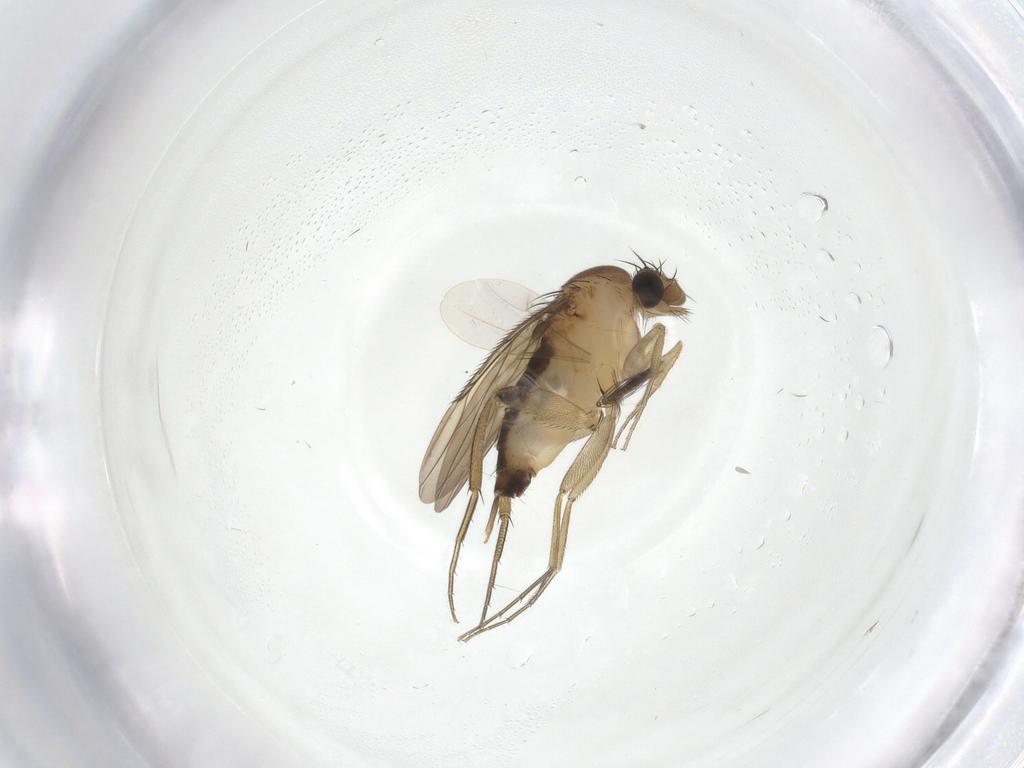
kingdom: Animalia
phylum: Arthropoda
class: Insecta
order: Diptera
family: Phoridae
